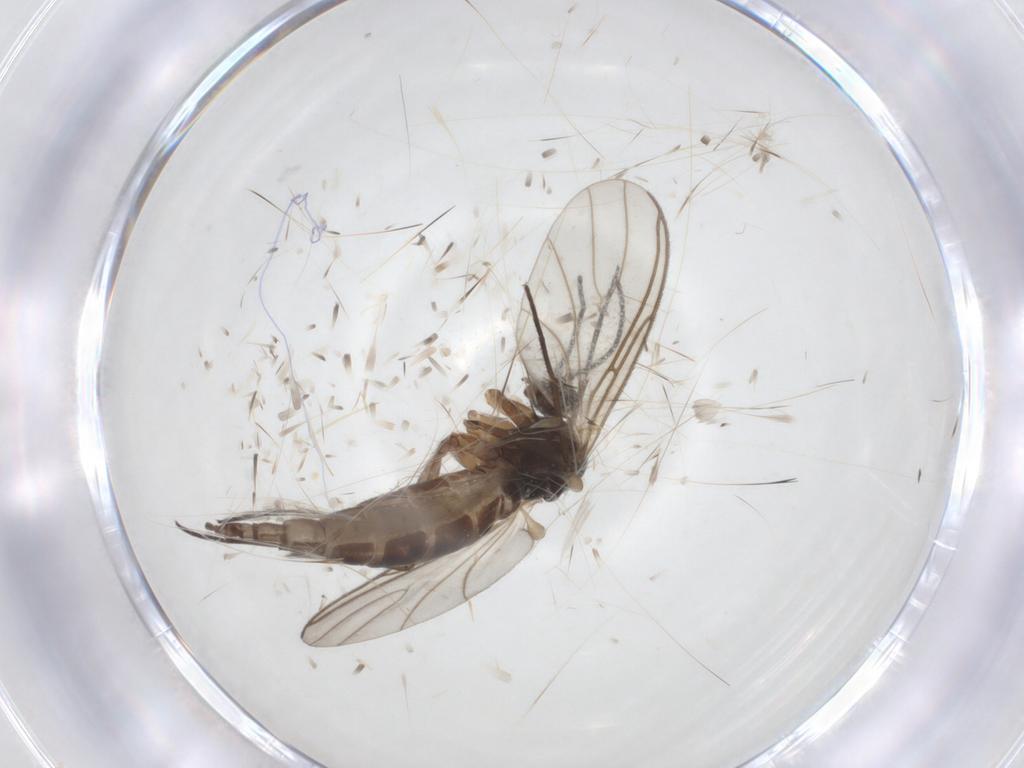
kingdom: Animalia
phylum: Arthropoda
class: Insecta
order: Diptera
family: Sciaridae
